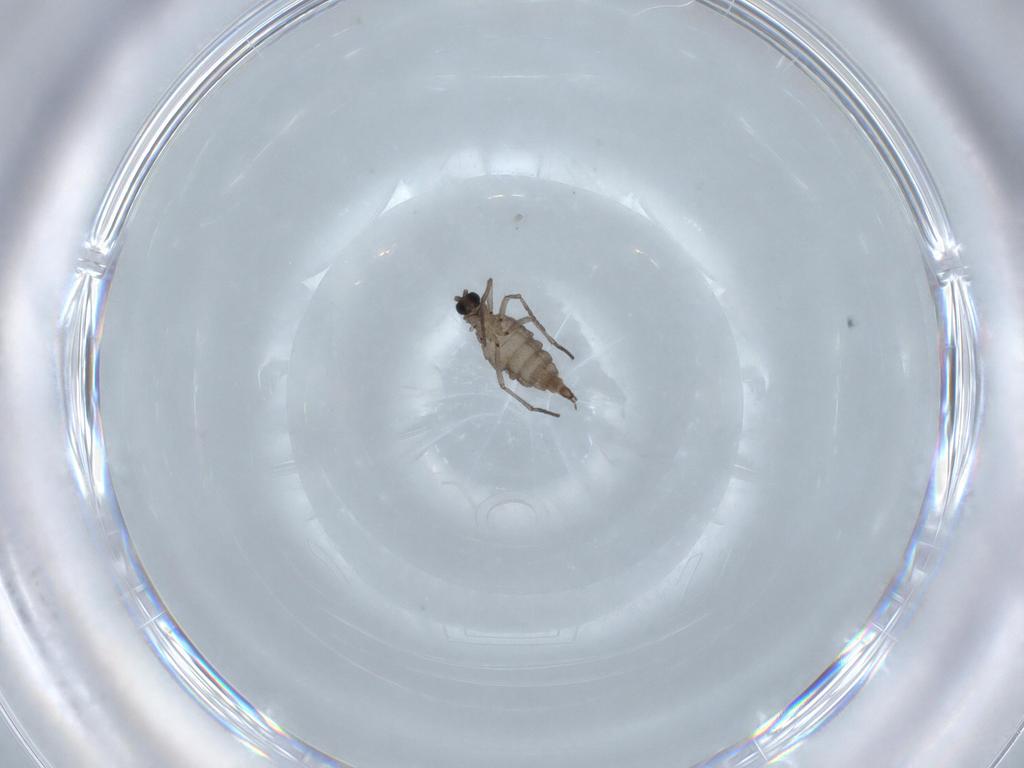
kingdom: Animalia
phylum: Arthropoda
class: Insecta
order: Diptera
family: Sciaridae
